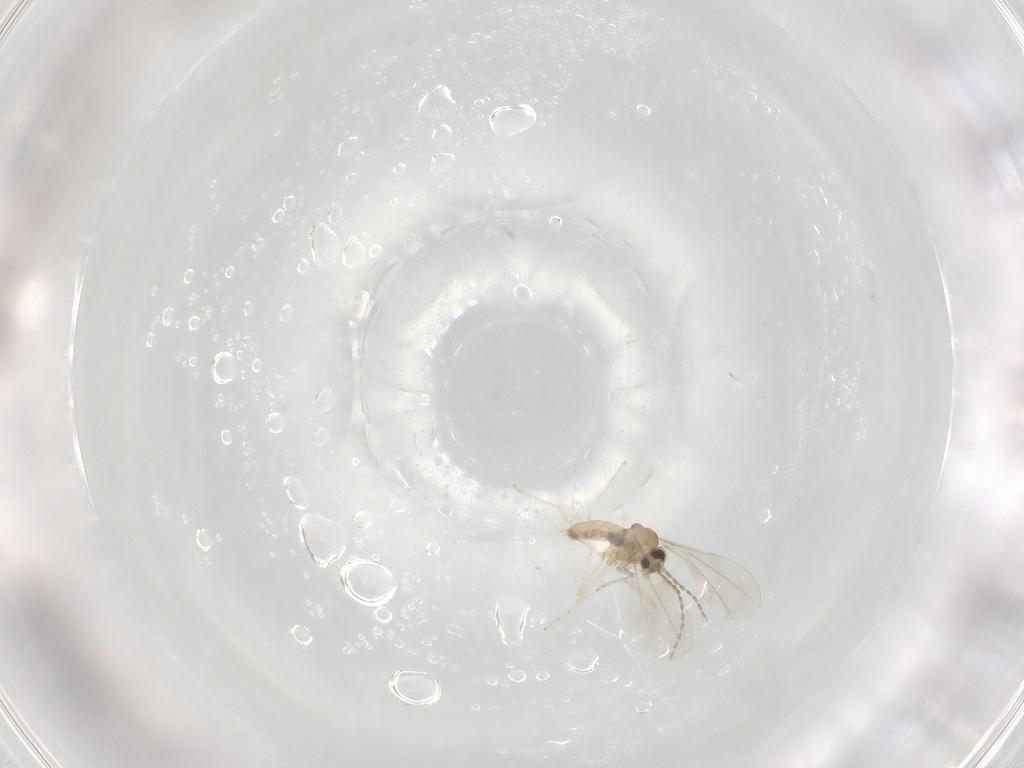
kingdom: Animalia
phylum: Arthropoda
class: Insecta
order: Diptera
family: Cecidomyiidae
